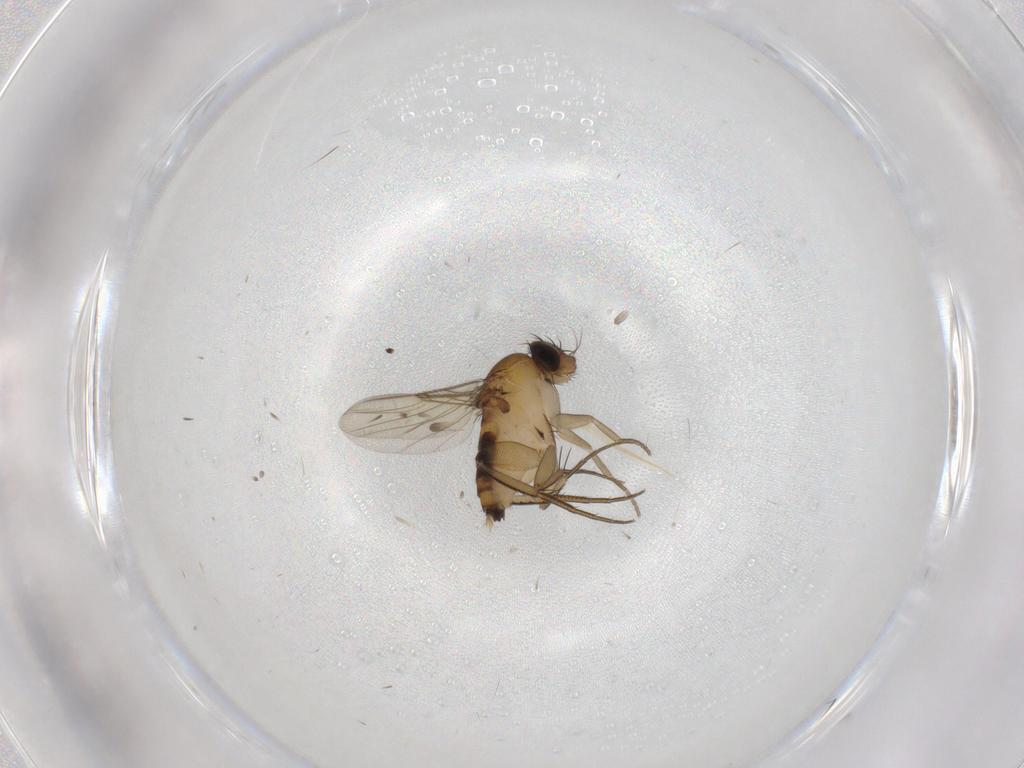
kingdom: Animalia
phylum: Arthropoda
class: Insecta
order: Diptera
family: Phoridae
